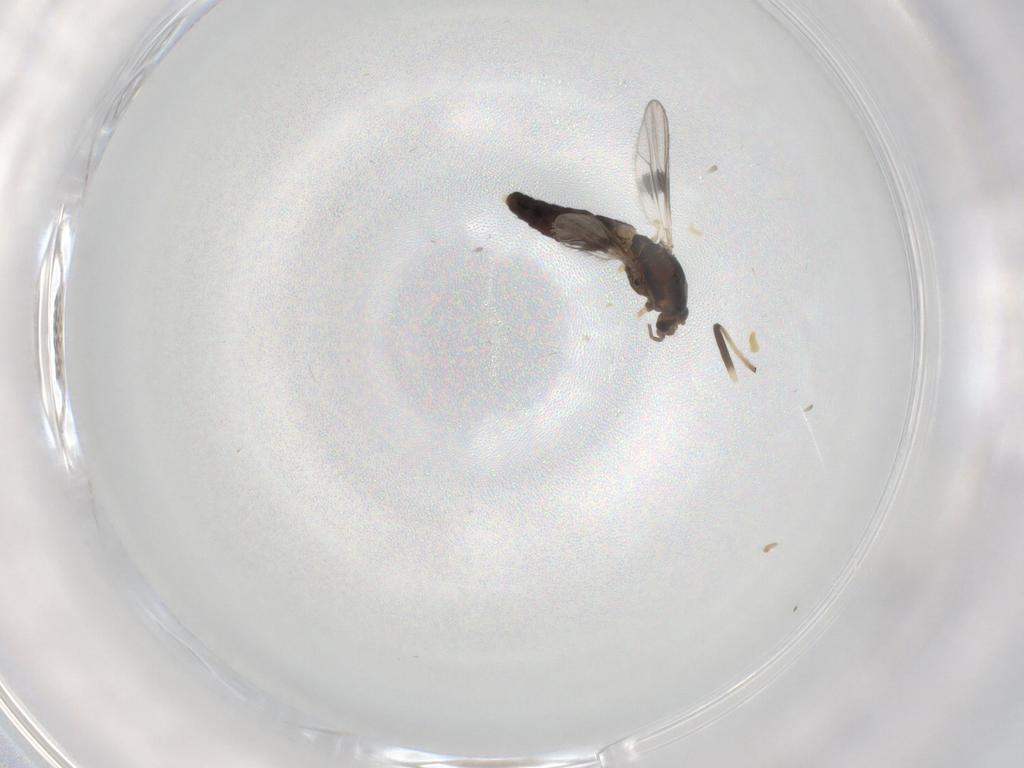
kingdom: Animalia
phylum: Arthropoda
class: Insecta
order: Diptera
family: Chironomidae
